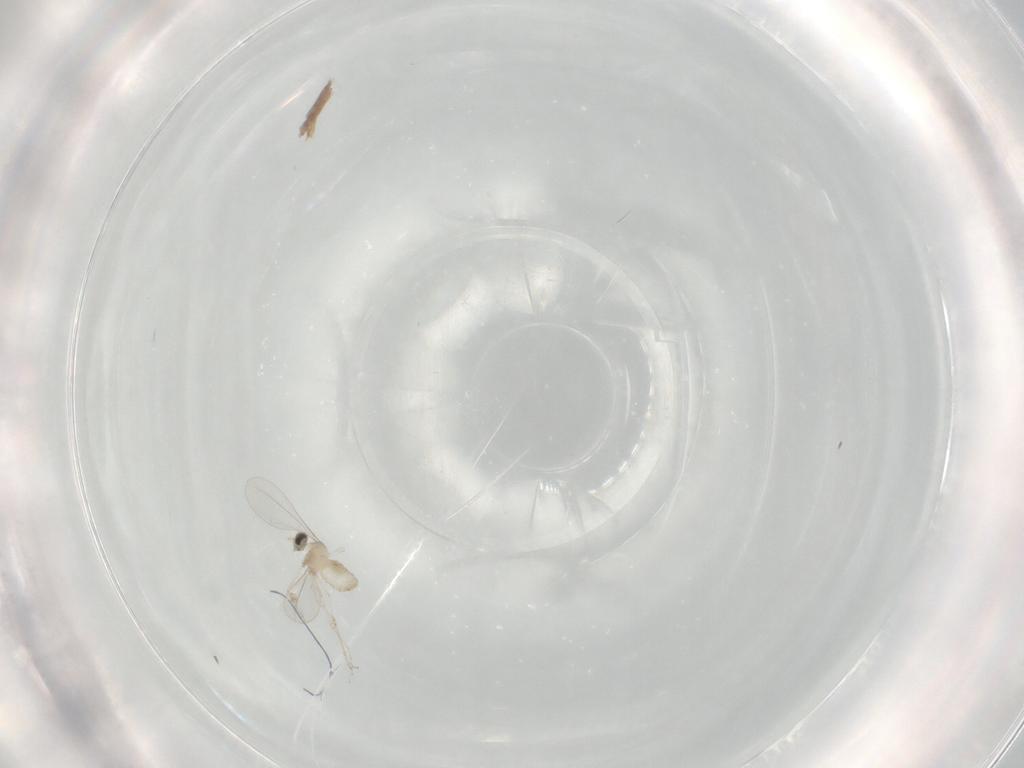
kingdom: Animalia
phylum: Arthropoda
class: Insecta
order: Diptera
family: Cecidomyiidae
